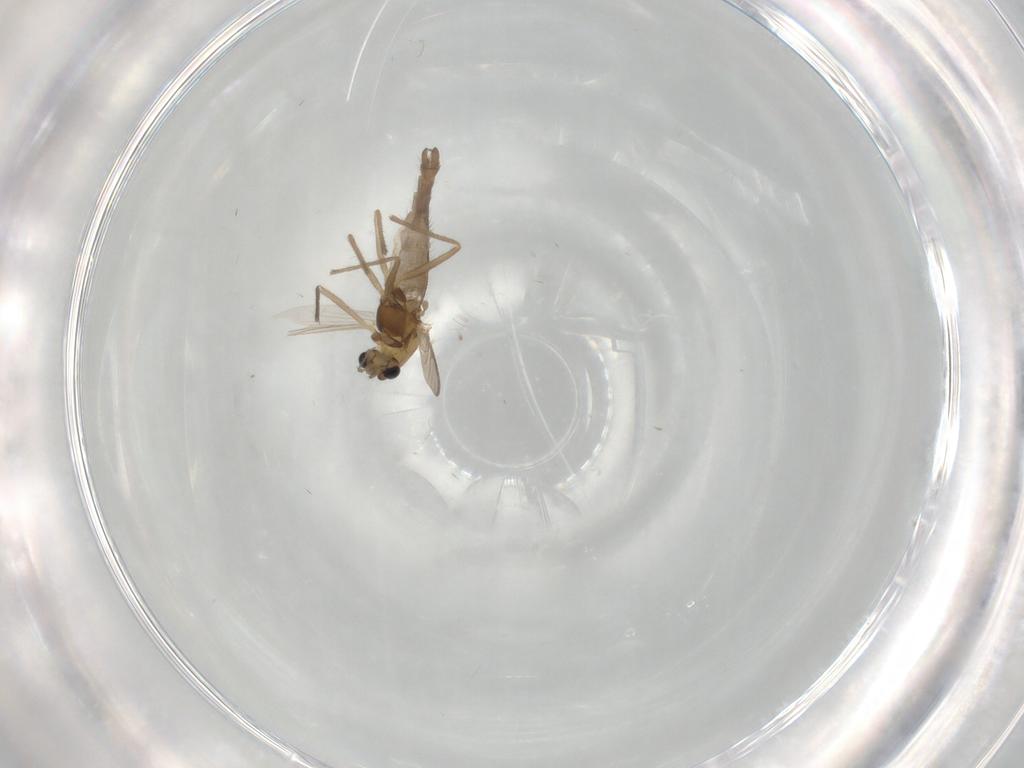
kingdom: Animalia
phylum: Arthropoda
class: Insecta
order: Diptera
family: Chironomidae
